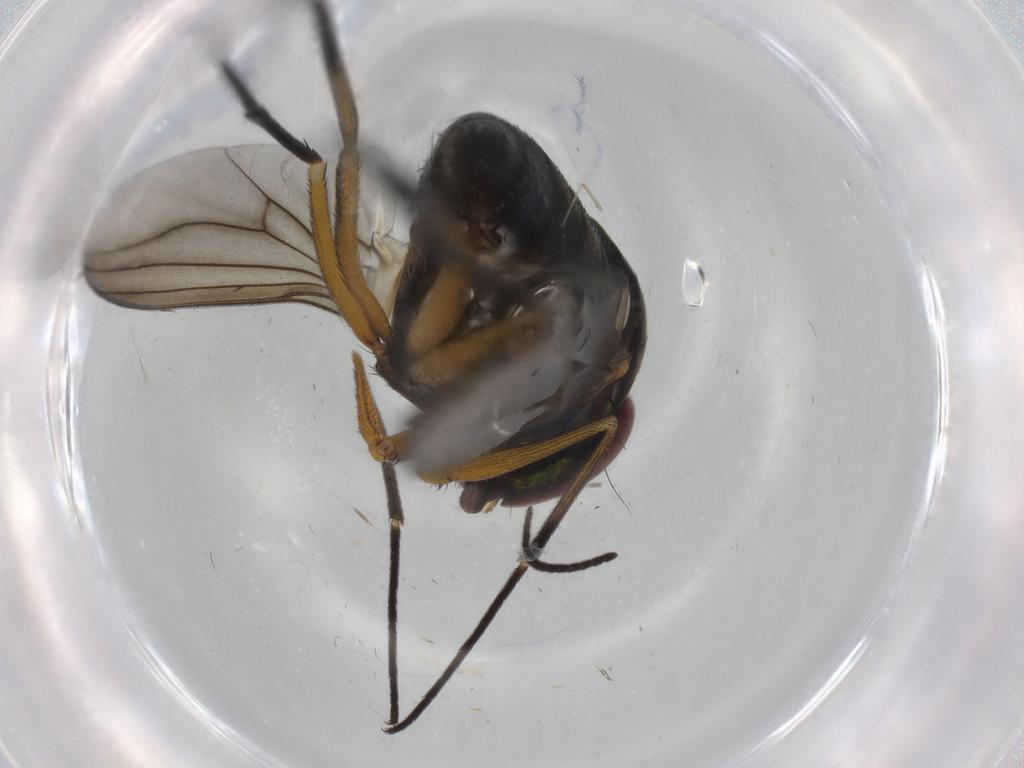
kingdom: Animalia
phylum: Arthropoda
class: Insecta
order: Diptera
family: Dolichopodidae
